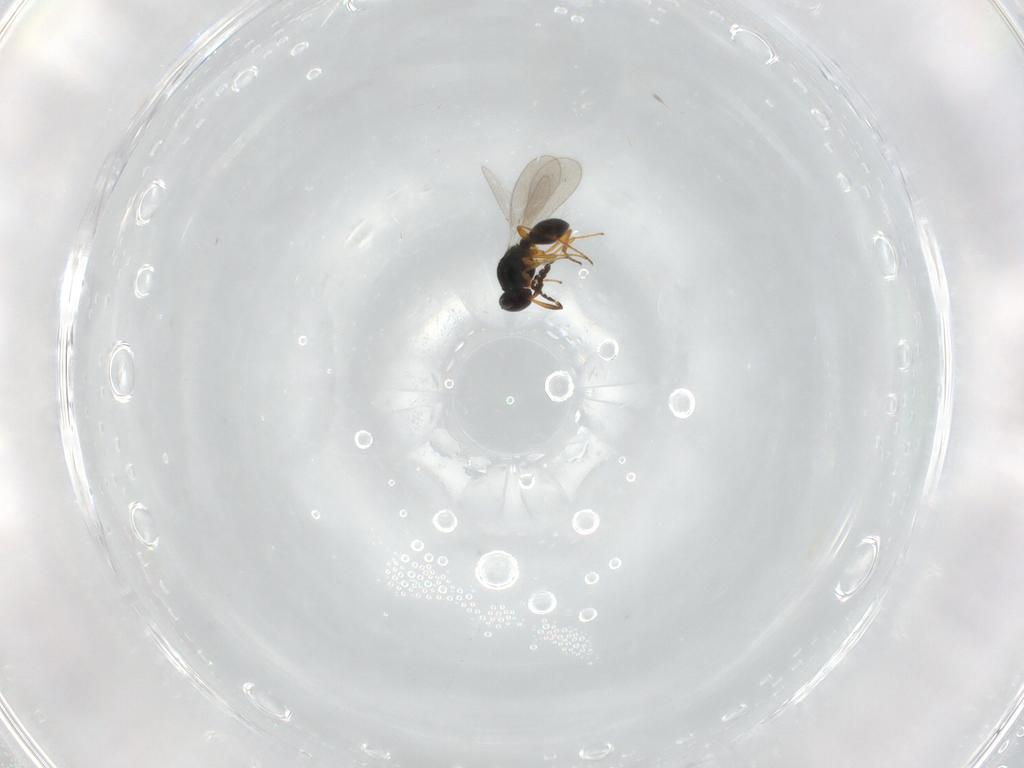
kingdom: Animalia
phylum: Arthropoda
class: Insecta
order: Hymenoptera
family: Platygastridae
